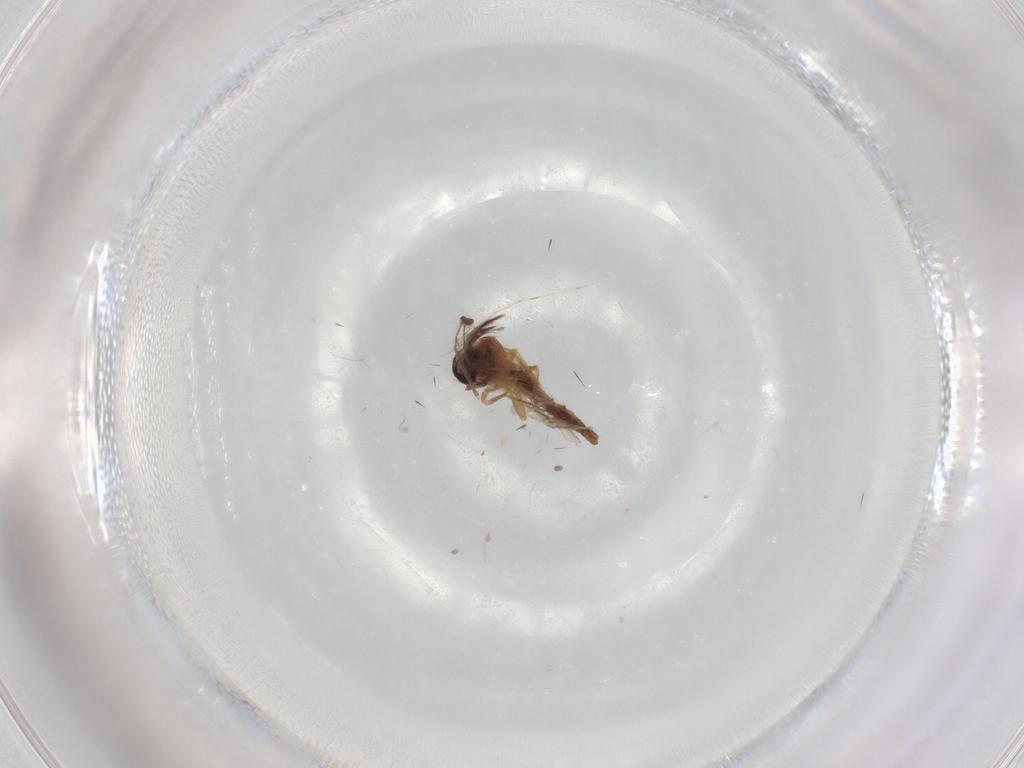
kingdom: Animalia
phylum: Arthropoda
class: Insecta
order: Diptera
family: Ceratopogonidae
